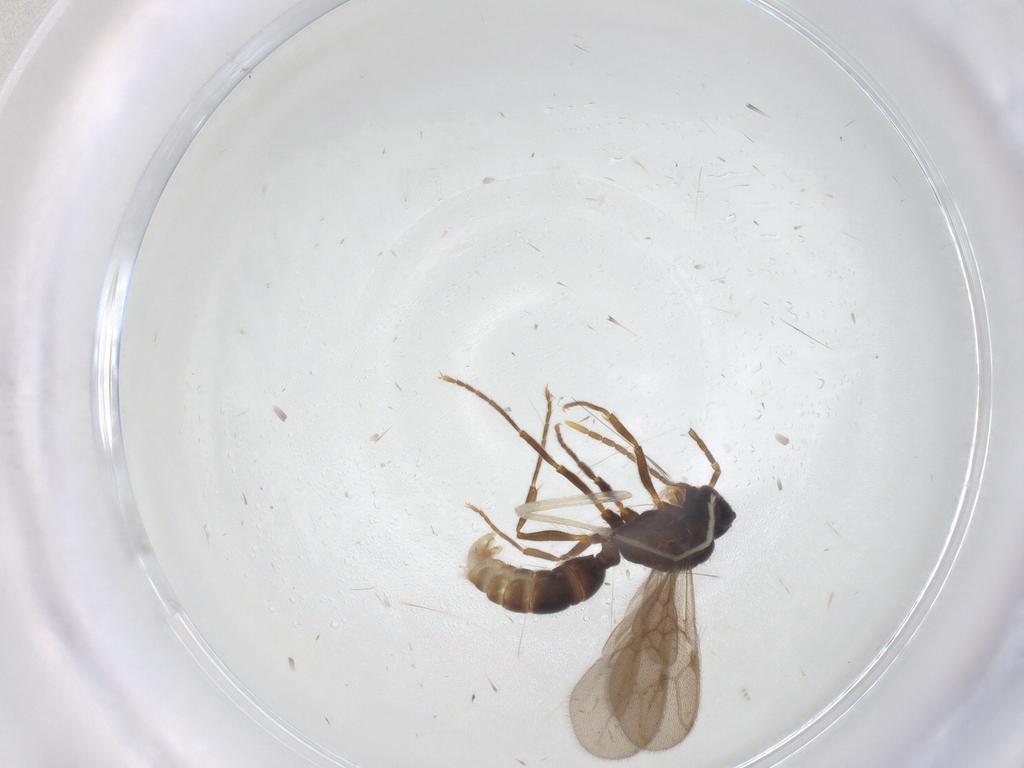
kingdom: Animalia
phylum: Arthropoda
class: Insecta
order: Hymenoptera
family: Formicidae
